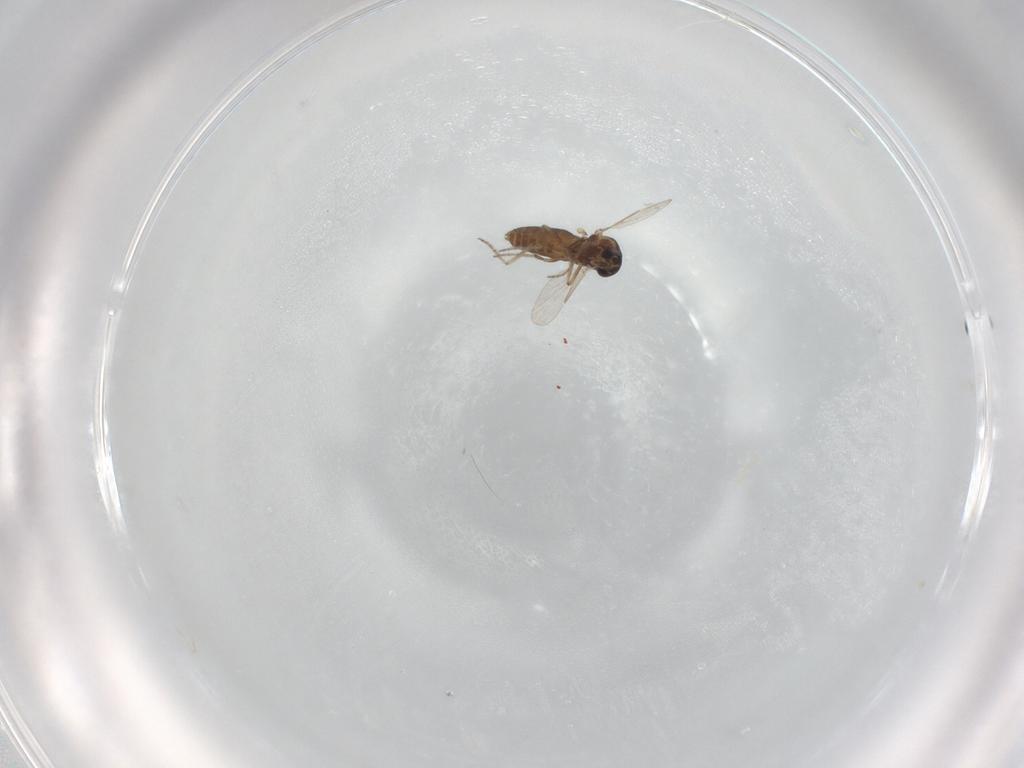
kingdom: Animalia
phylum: Arthropoda
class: Insecta
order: Diptera
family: Ceratopogonidae
